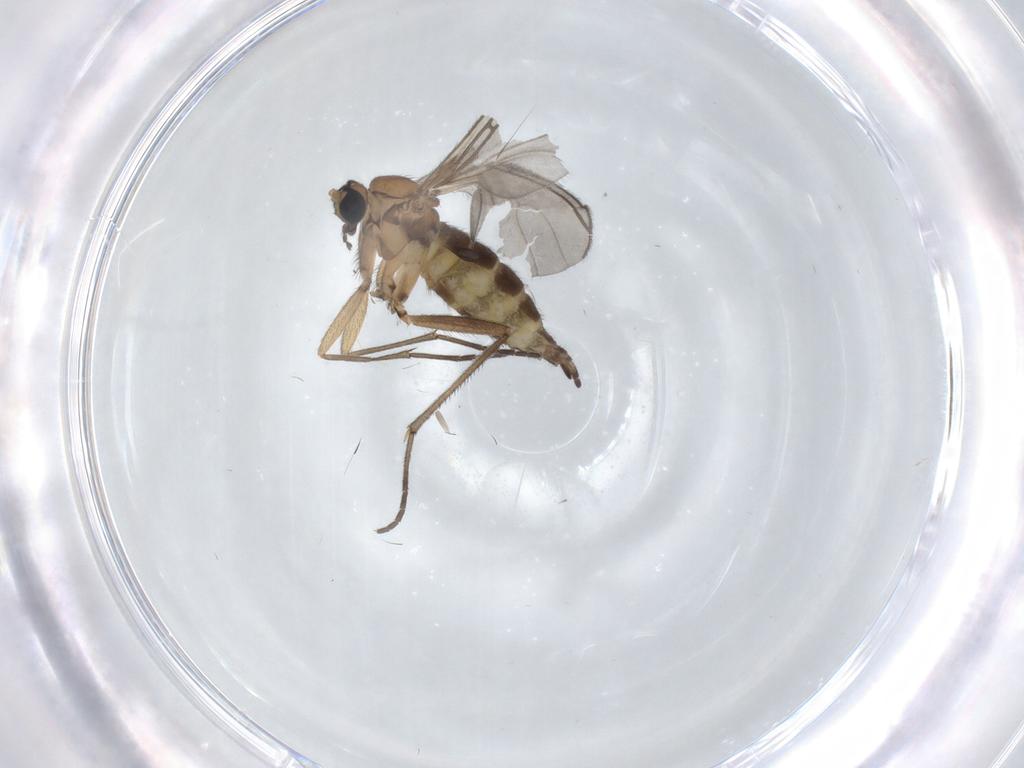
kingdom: Animalia
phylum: Arthropoda
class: Insecta
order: Diptera
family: Sciaridae
